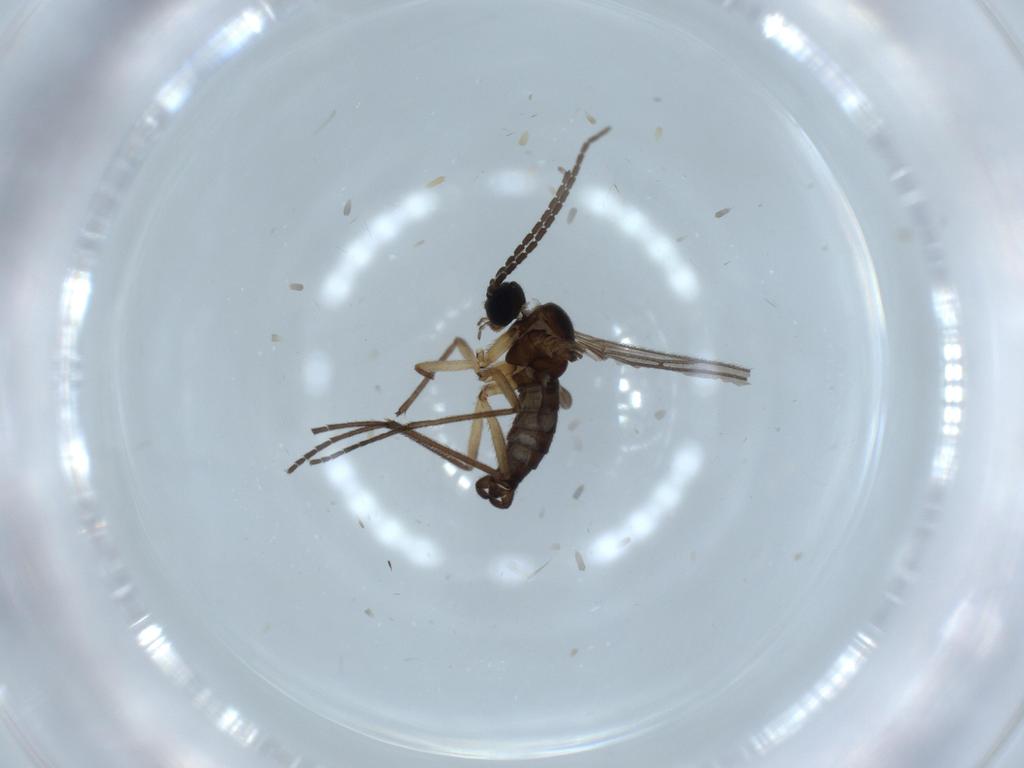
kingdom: Animalia
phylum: Arthropoda
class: Insecta
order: Diptera
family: Sciaridae
